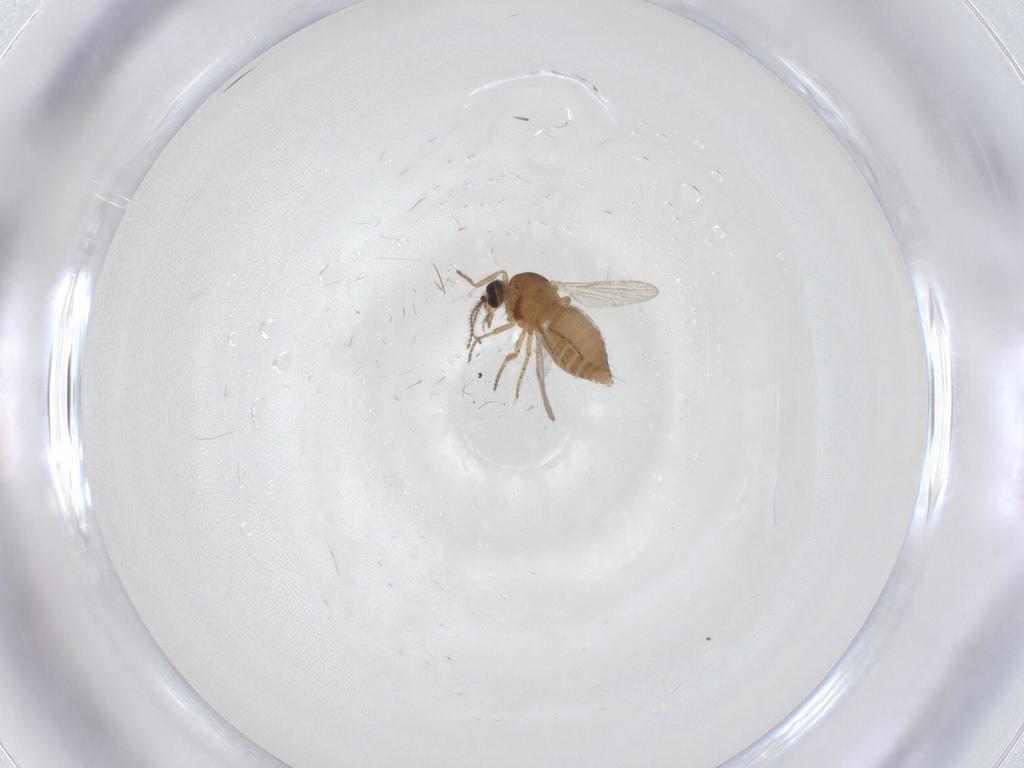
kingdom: Animalia
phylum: Arthropoda
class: Insecta
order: Diptera
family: Ceratopogonidae
